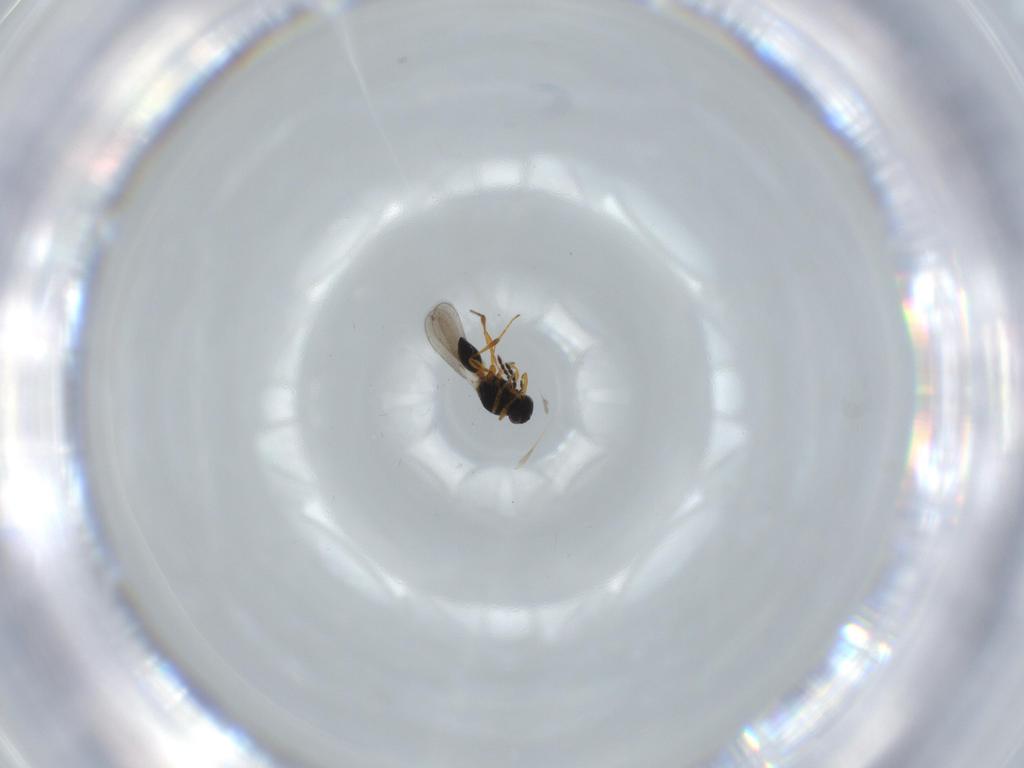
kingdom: Animalia
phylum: Arthropoda
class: Insecta
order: Hymenoptera
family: Platygastridae
